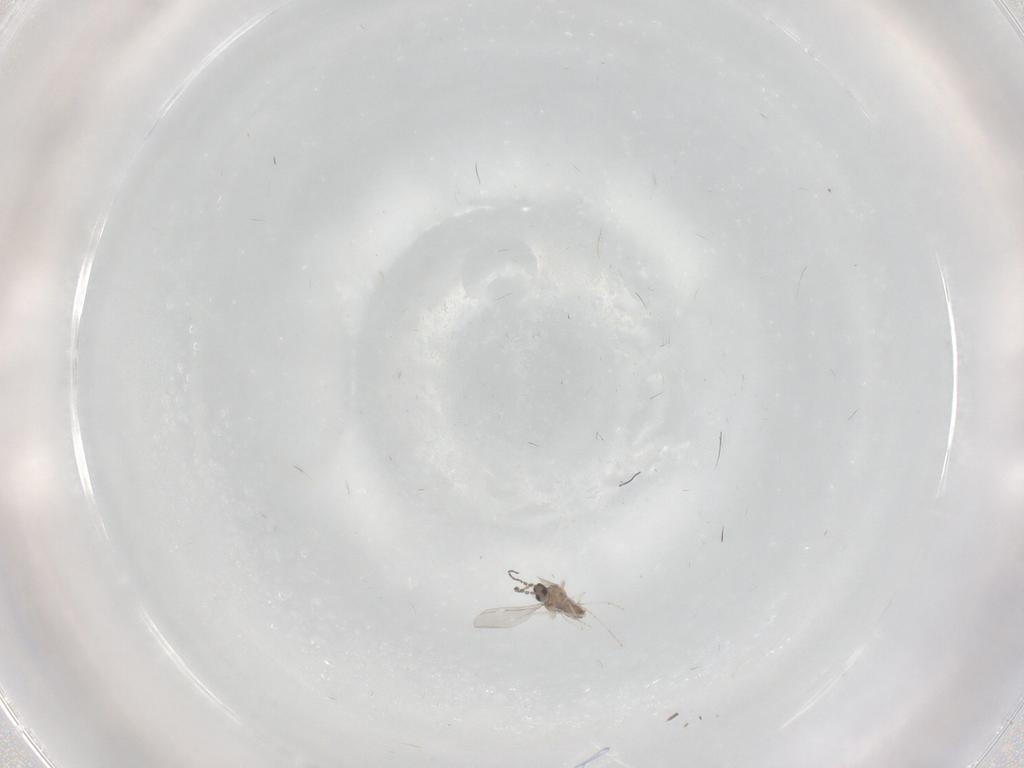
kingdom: Animalia
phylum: Arthropoda
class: Insecta
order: Diptera
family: Cecidomyiidae
